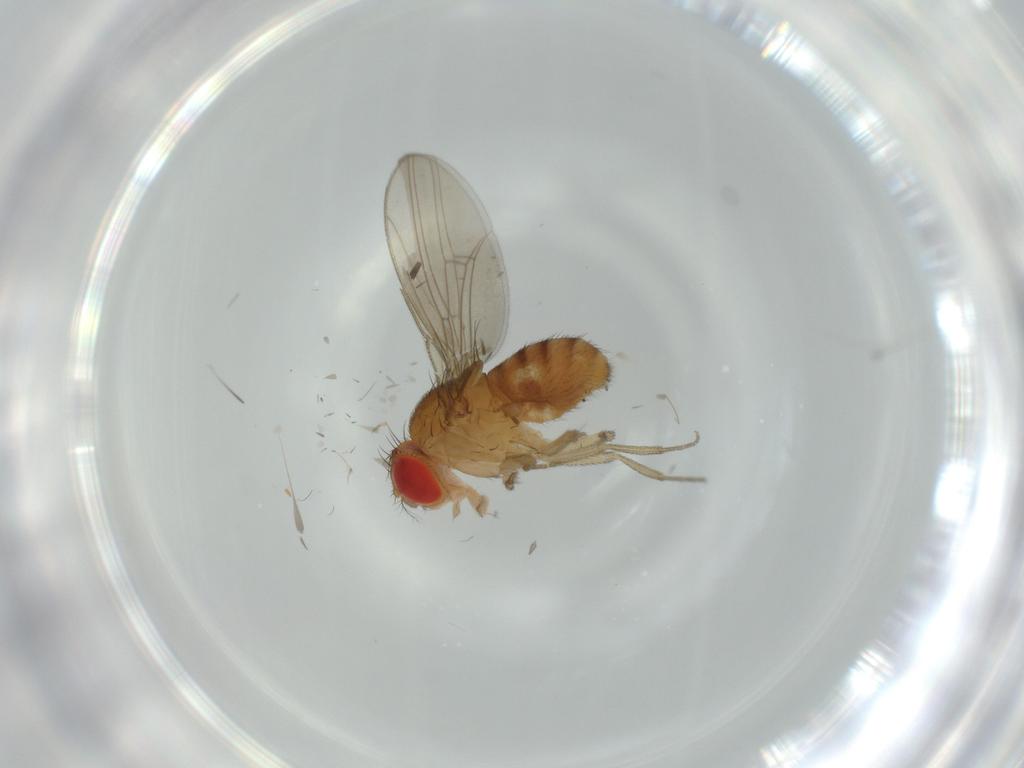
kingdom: Animalia
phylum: Arthropoda
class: Insecta
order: Diptera
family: Drosophilidae
